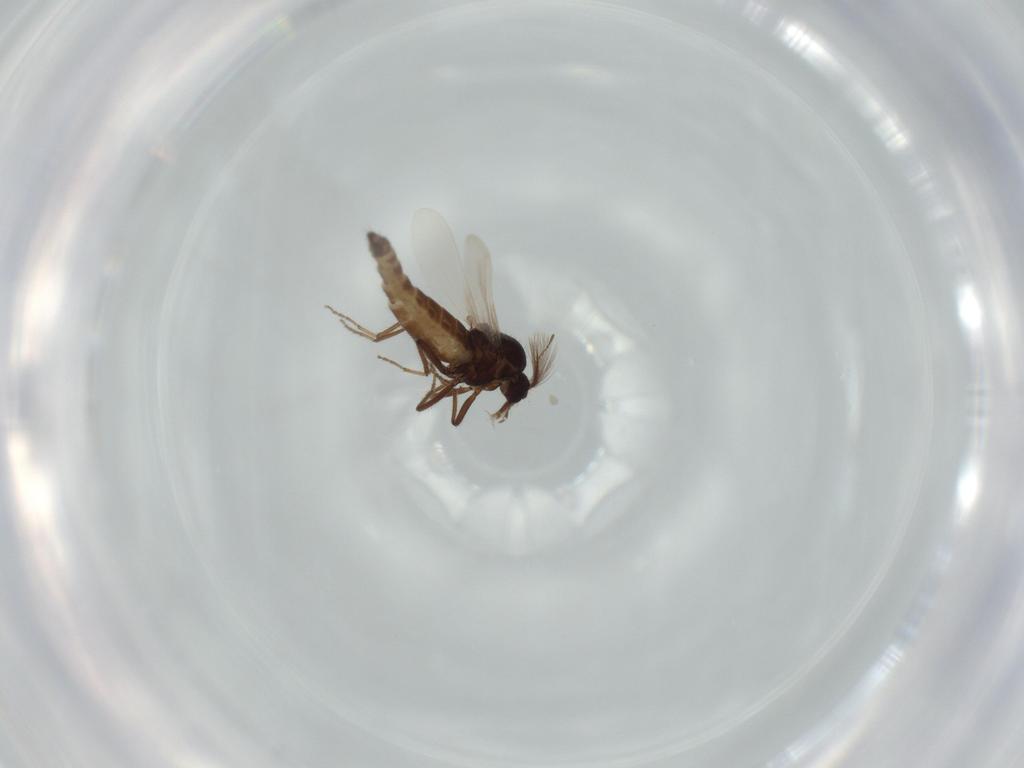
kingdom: Animalia
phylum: Arthropoda
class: Insecta
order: Diptera
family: Ceratopogonidae
